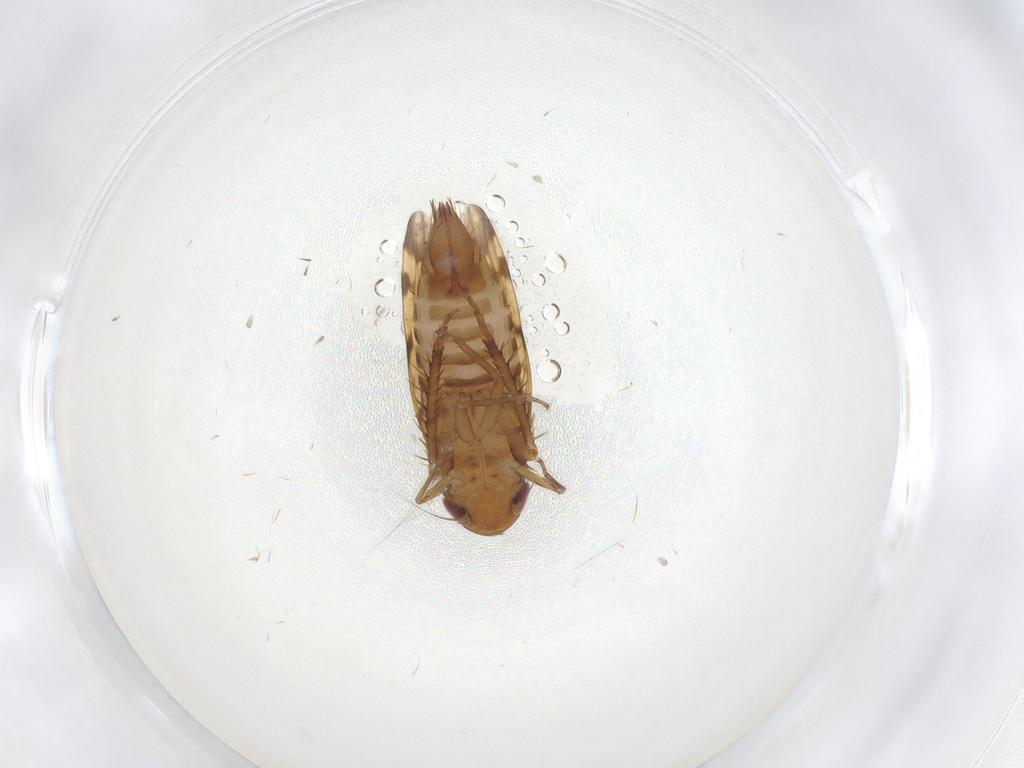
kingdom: Animalia
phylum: Arthropoda
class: Insecta
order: Hemiptera
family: Cicadellidae
